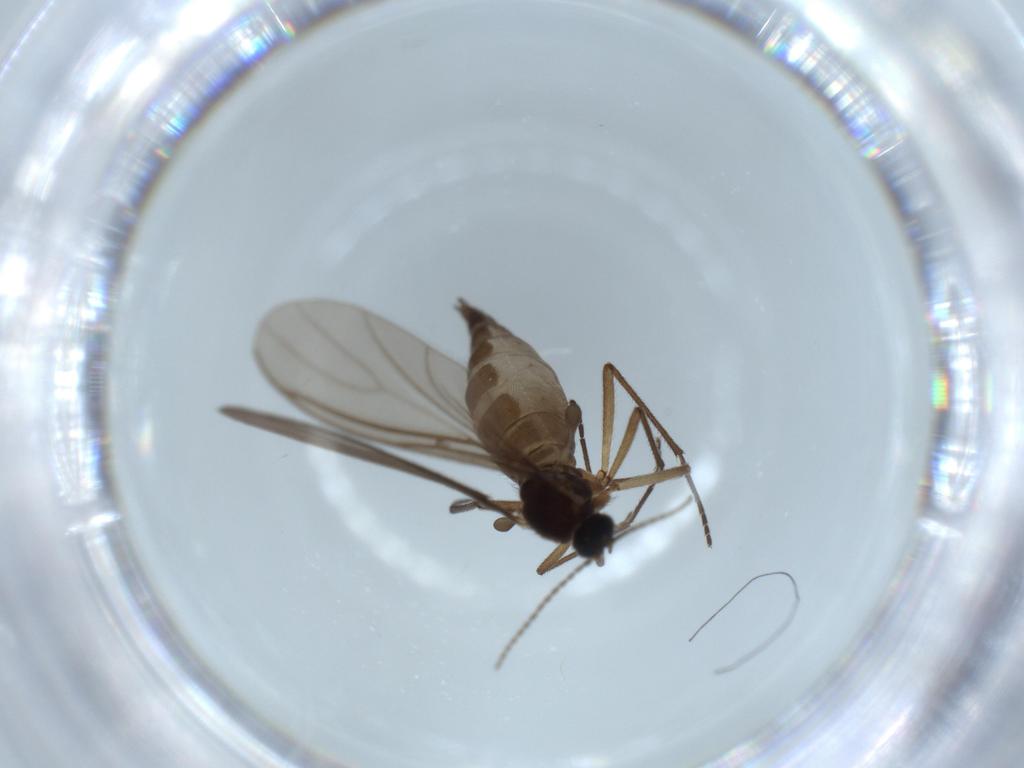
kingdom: Animalia
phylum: Arthropoda
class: Insecta
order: Diptera
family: Sciaridae
